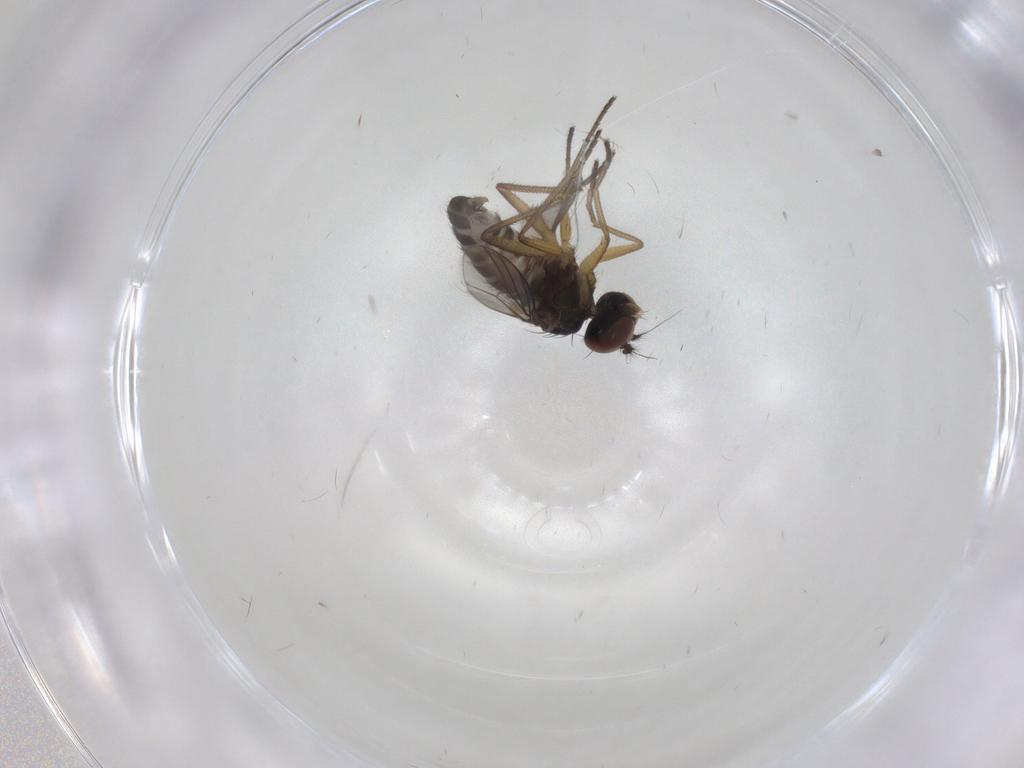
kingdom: Animalia
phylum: Arthropoda
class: Insecta
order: Diptera
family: Dolichopodidae
